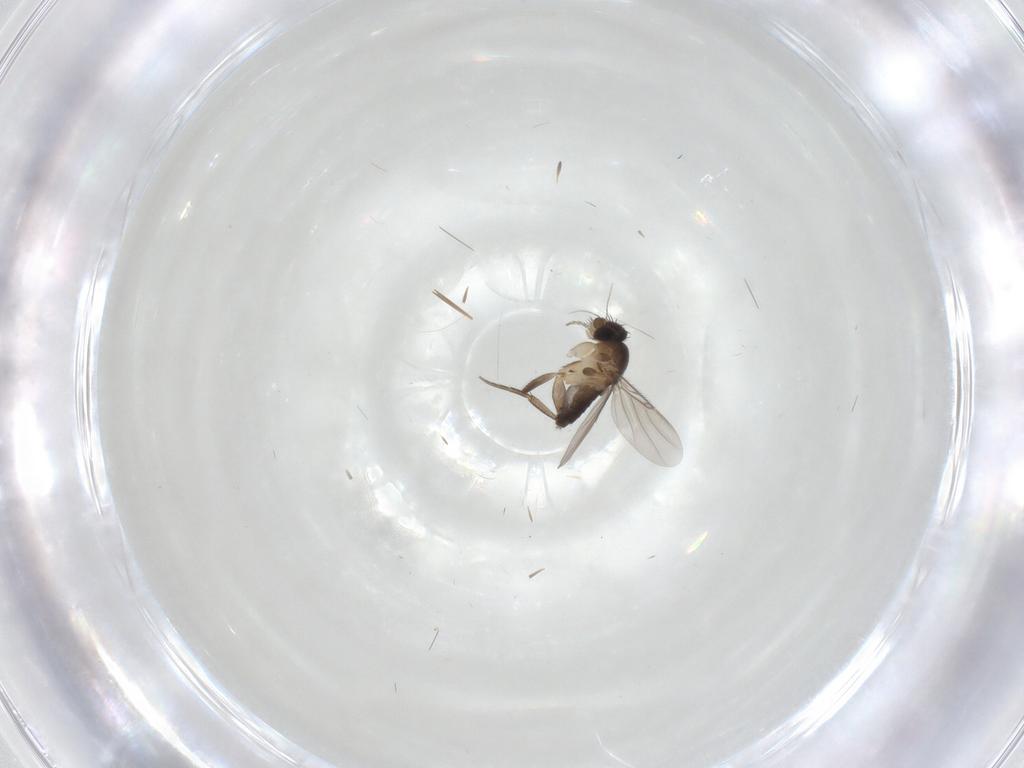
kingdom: Animalia
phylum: Arthropoda
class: Insecta
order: Diptera
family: Phoridae
